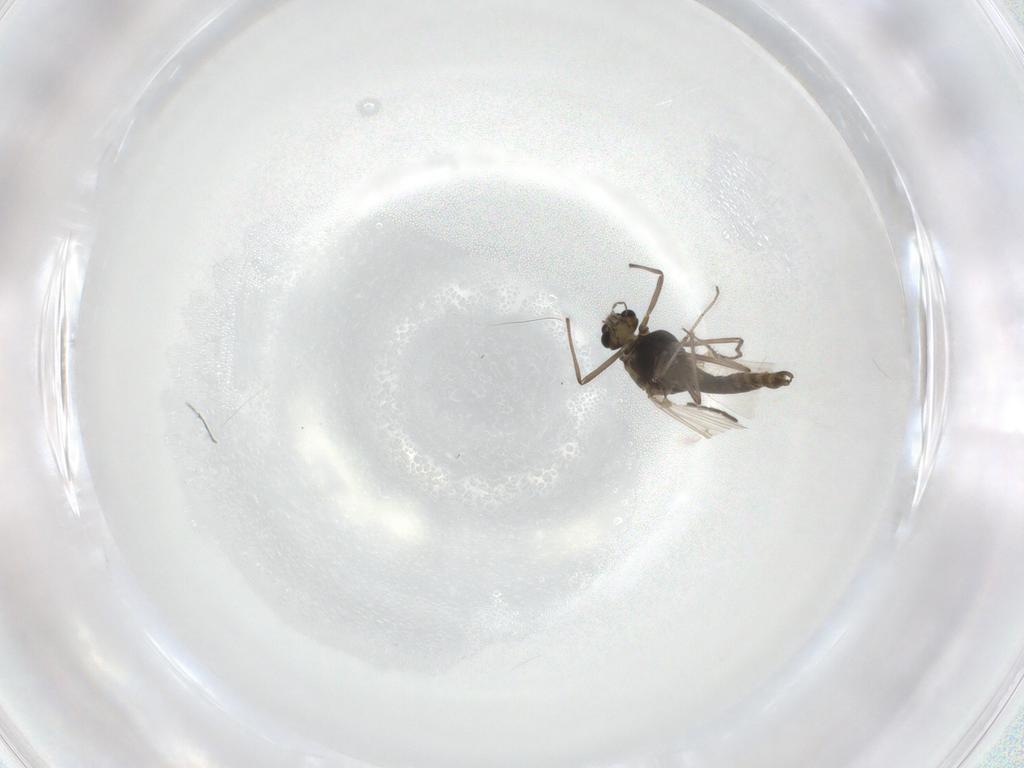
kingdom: Animalia
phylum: Arthropoda
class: Insecta
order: Diptera
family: Chironomidae
